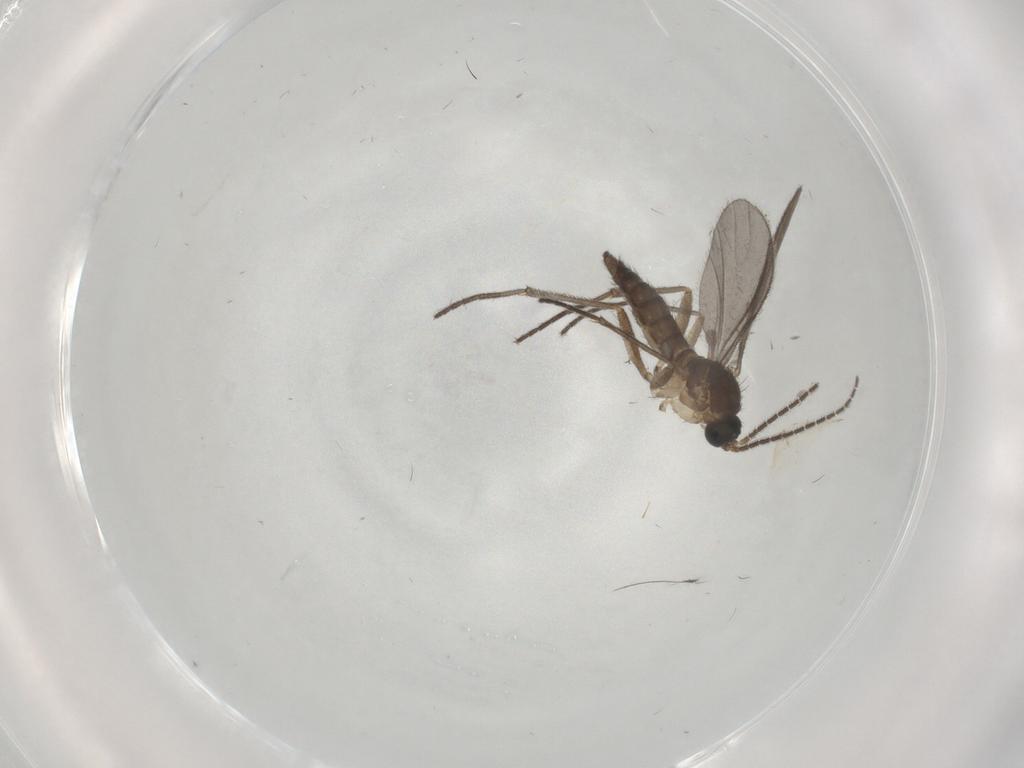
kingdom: Animalia
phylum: Arthropoda
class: Insecta
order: Diptera
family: Sciaridae
